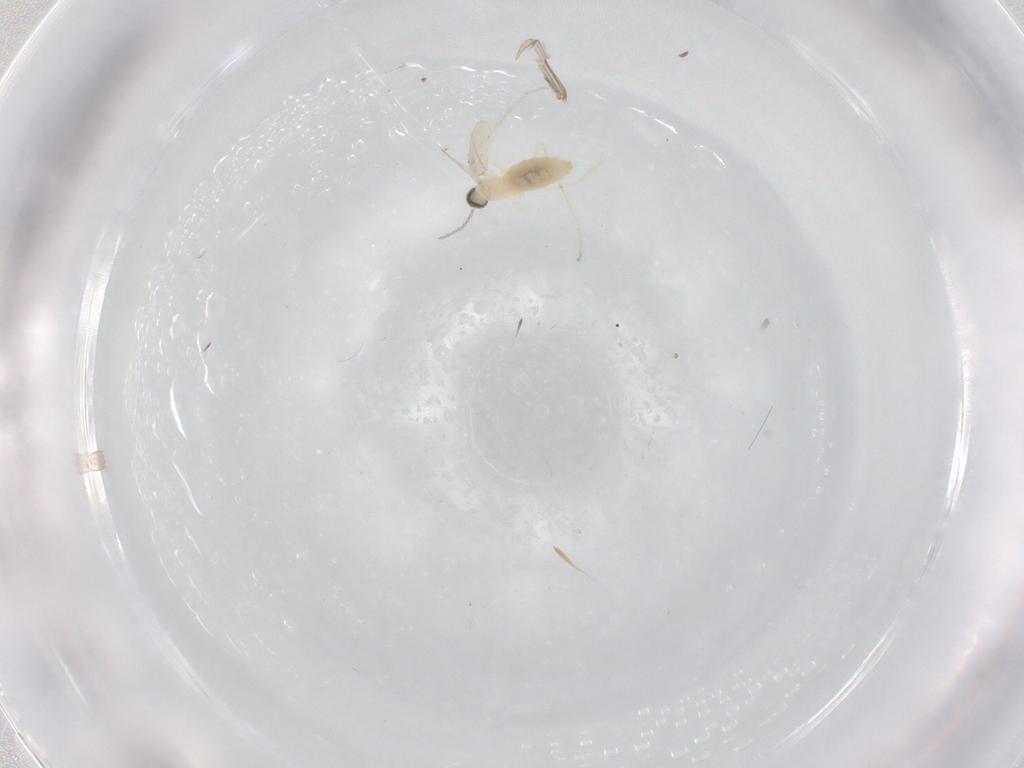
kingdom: Animalia
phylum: Arthropoda
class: Insecta
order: Diptera
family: Cecidomyiidae
